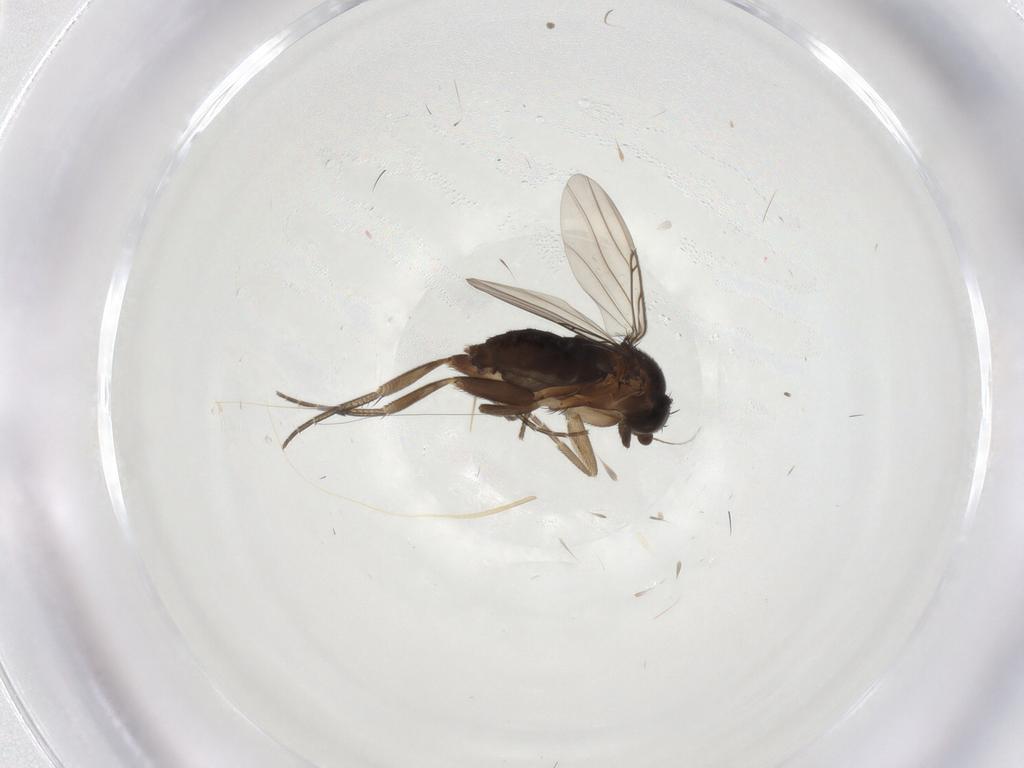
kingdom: Animalia
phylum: Arthropoda
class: Insecta
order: Diptera
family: Phoridae
